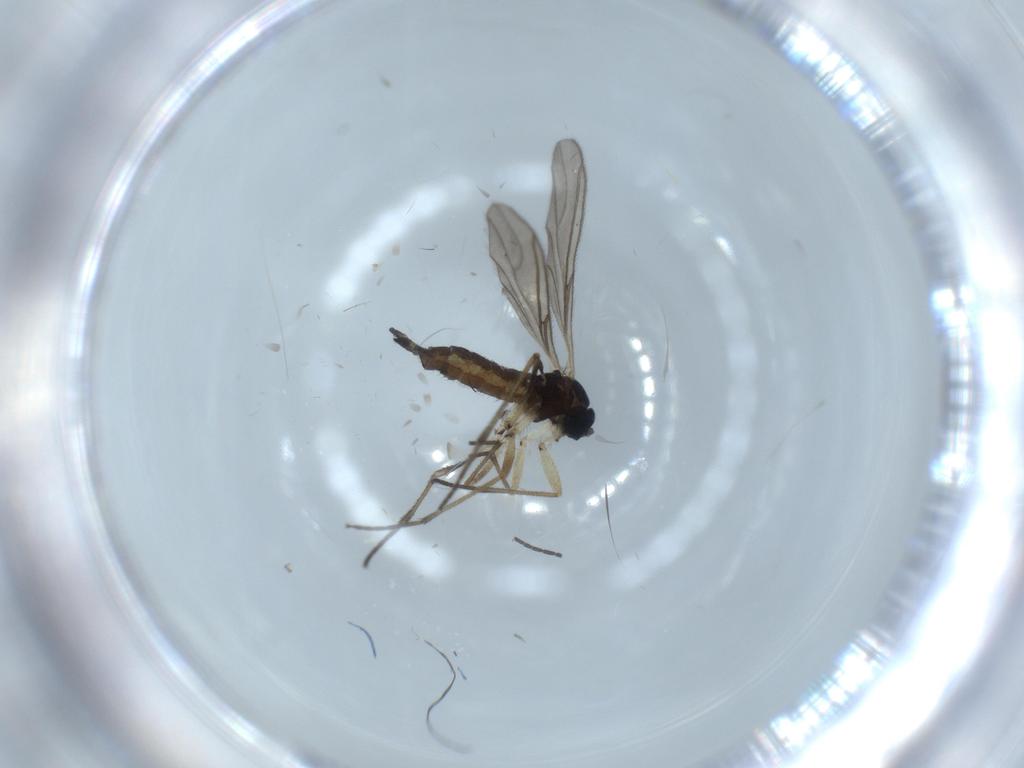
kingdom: Animalia
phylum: Arthropoda
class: Insecta
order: Diptera
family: Sciaridae
